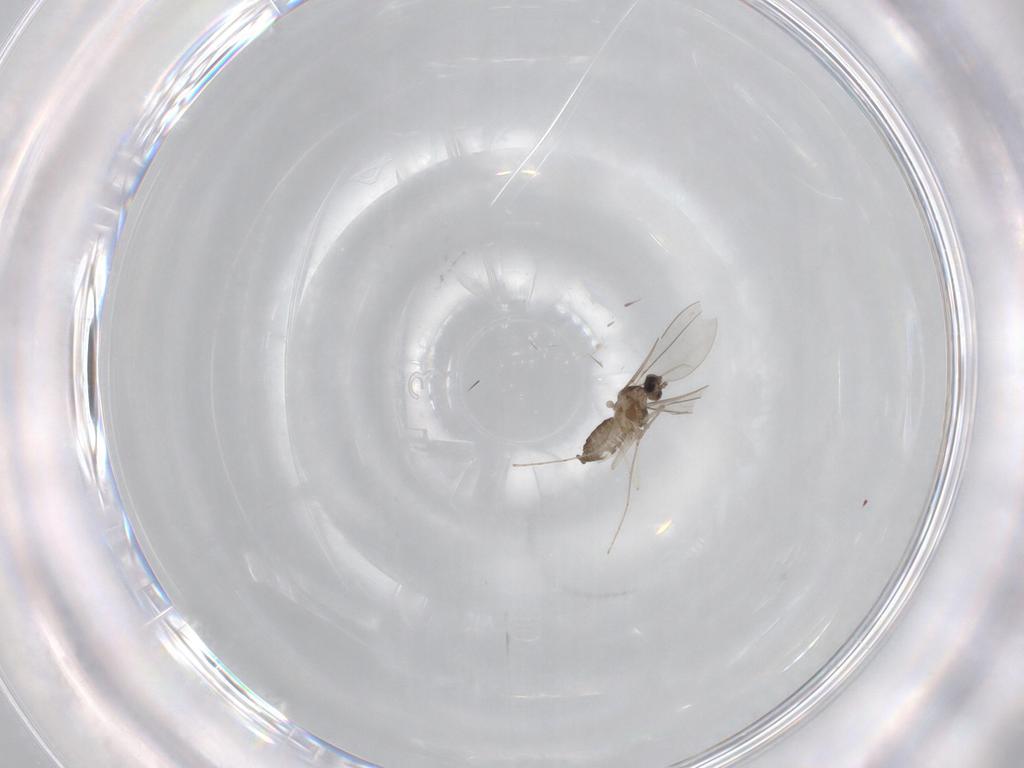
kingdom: Animalia
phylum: Arthropoda
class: Insecta
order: Diptera
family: Cecidomyiidae
